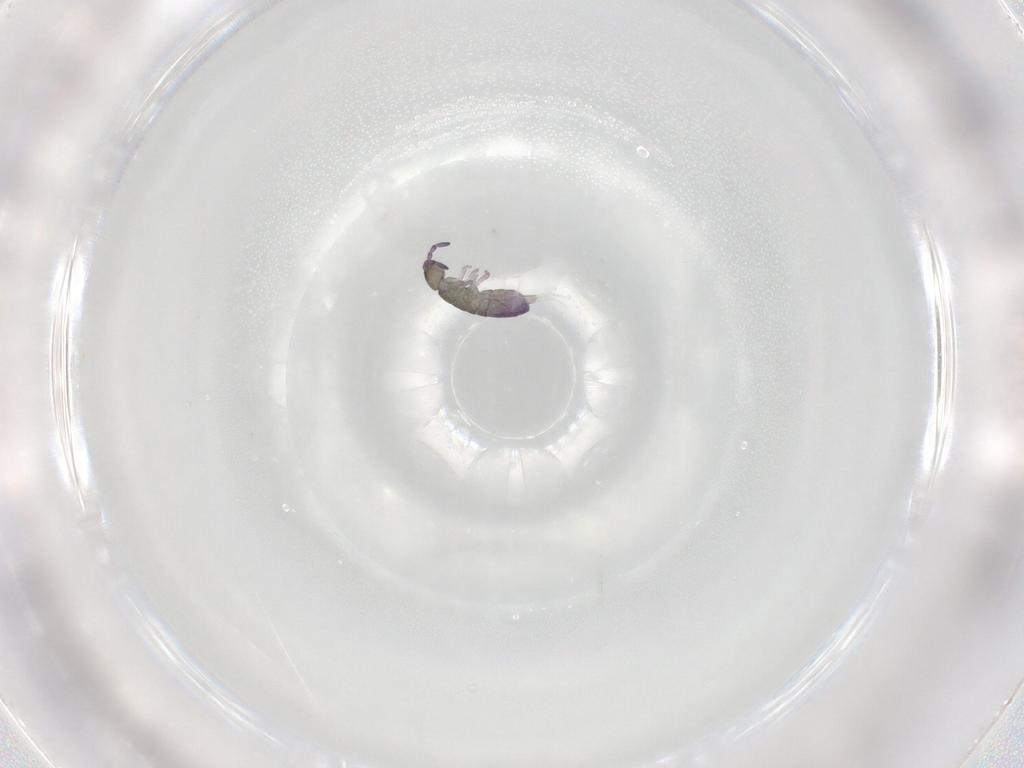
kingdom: Animalia
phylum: Arthropoda
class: Collembola
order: Entomobryomorpha
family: Isotomidae
